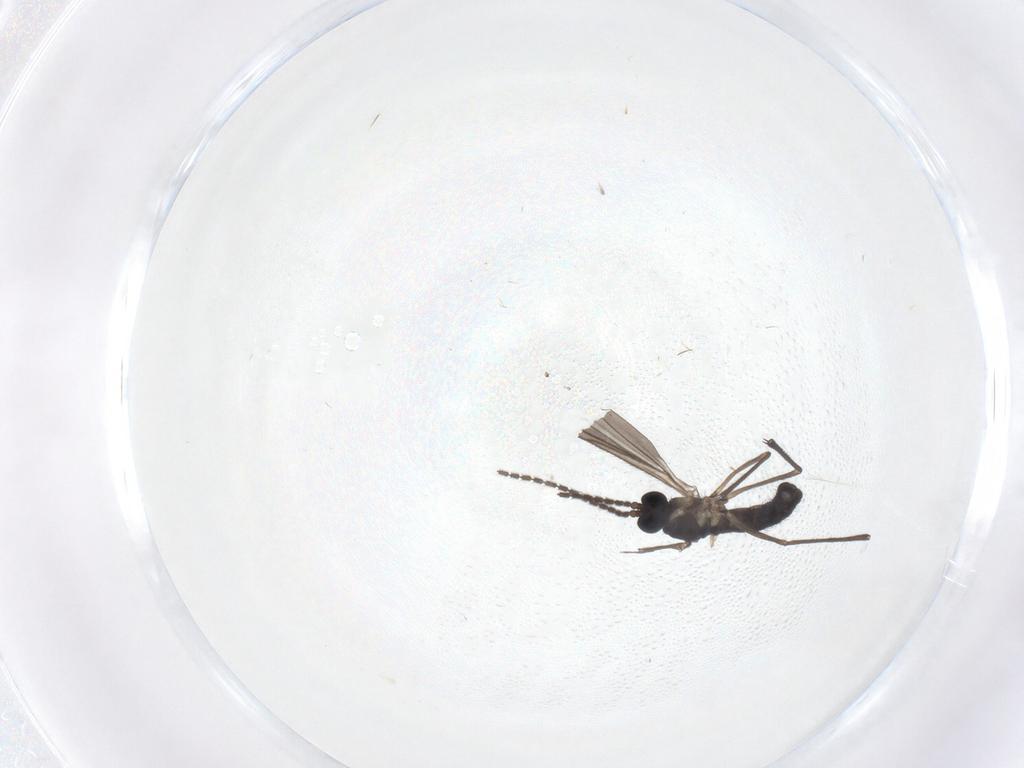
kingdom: Animalia
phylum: Arthropoda
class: Insecta
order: Diptera
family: Sciaridae
